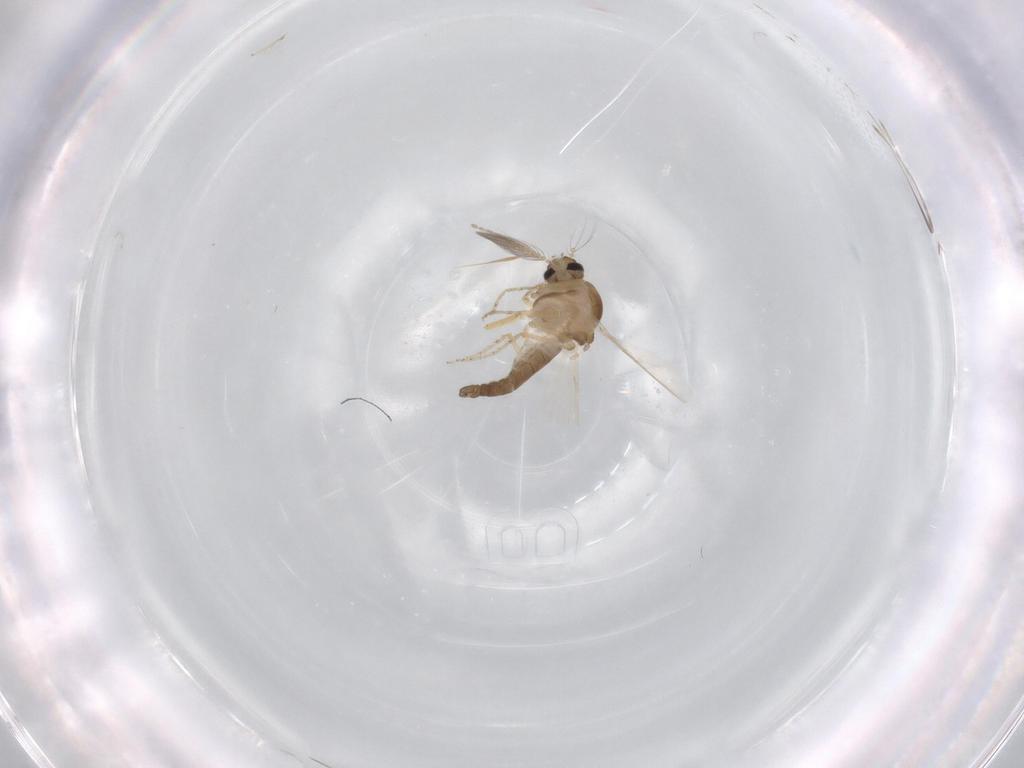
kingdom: Animalia
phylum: Arthropoda
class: Insecta
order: Diptera
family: Ceratopogonidae
